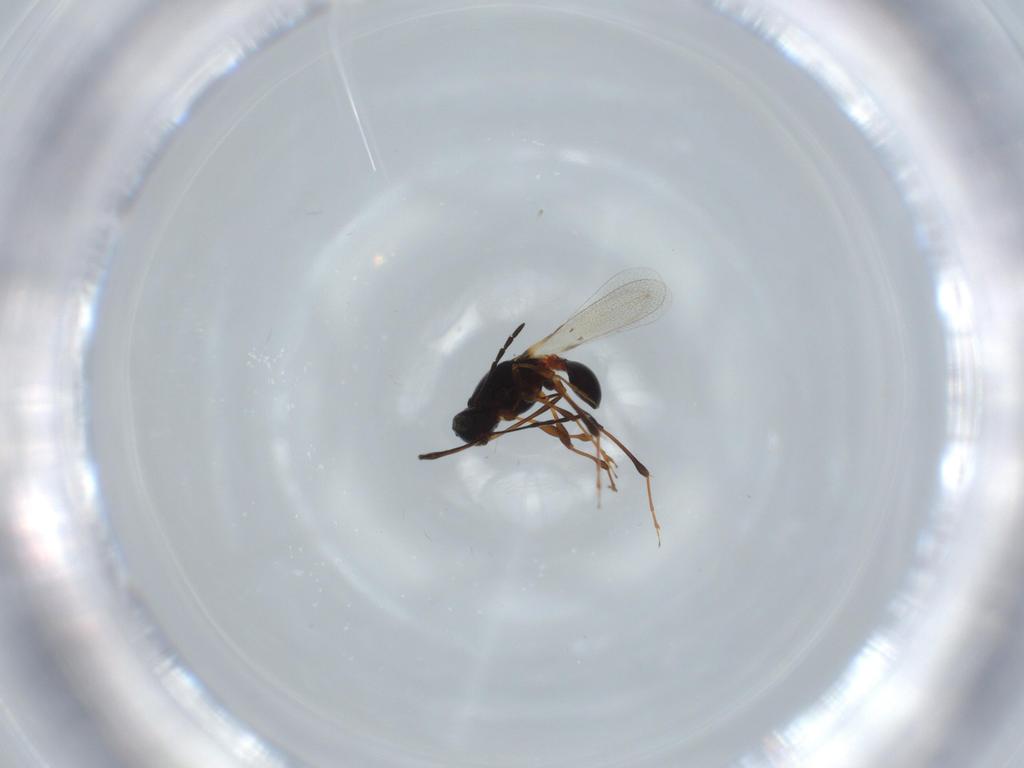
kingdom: Animalia
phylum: Arthropoda
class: Insecta
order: Hymenoptera
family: Platygastridae
